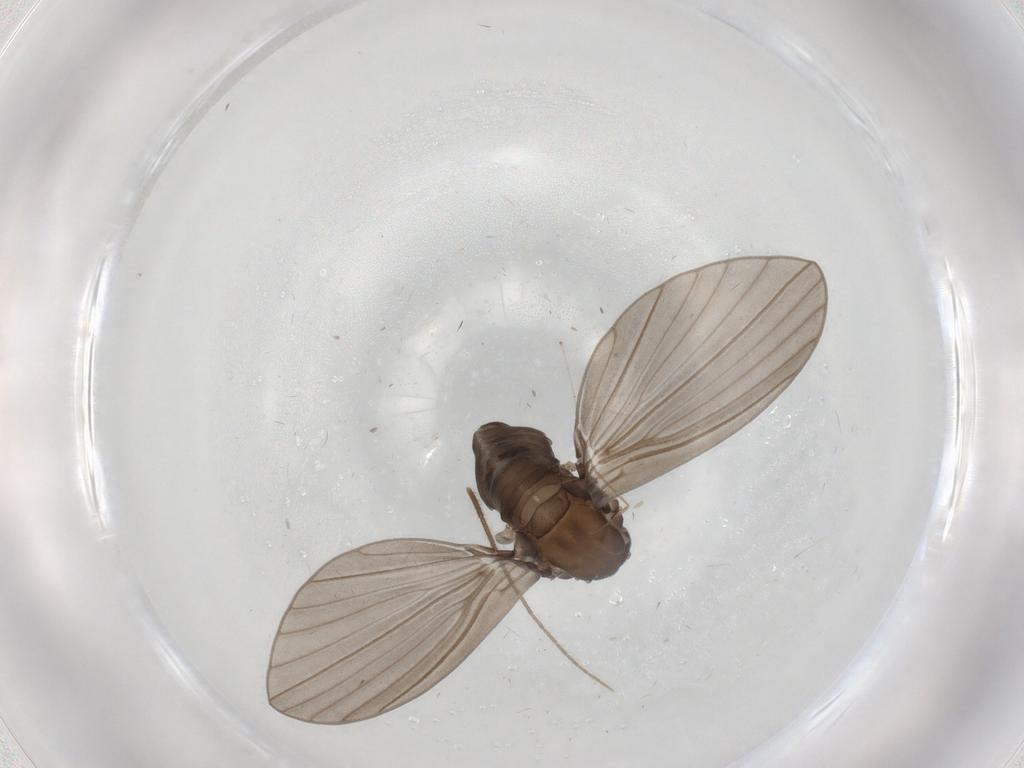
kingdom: Animalia
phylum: Arthropoda
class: Insecta
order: Diptera
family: Psychodidae
